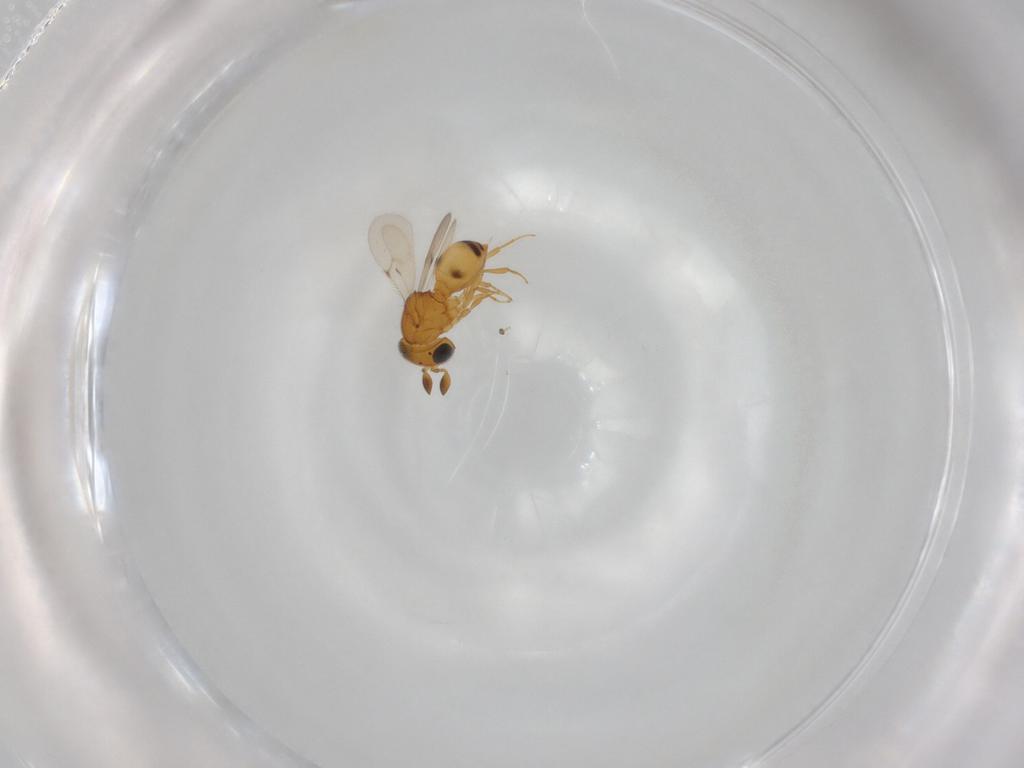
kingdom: Animalia
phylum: Arthropoda
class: Insecta
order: Hymenoptera
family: Scelionidae
